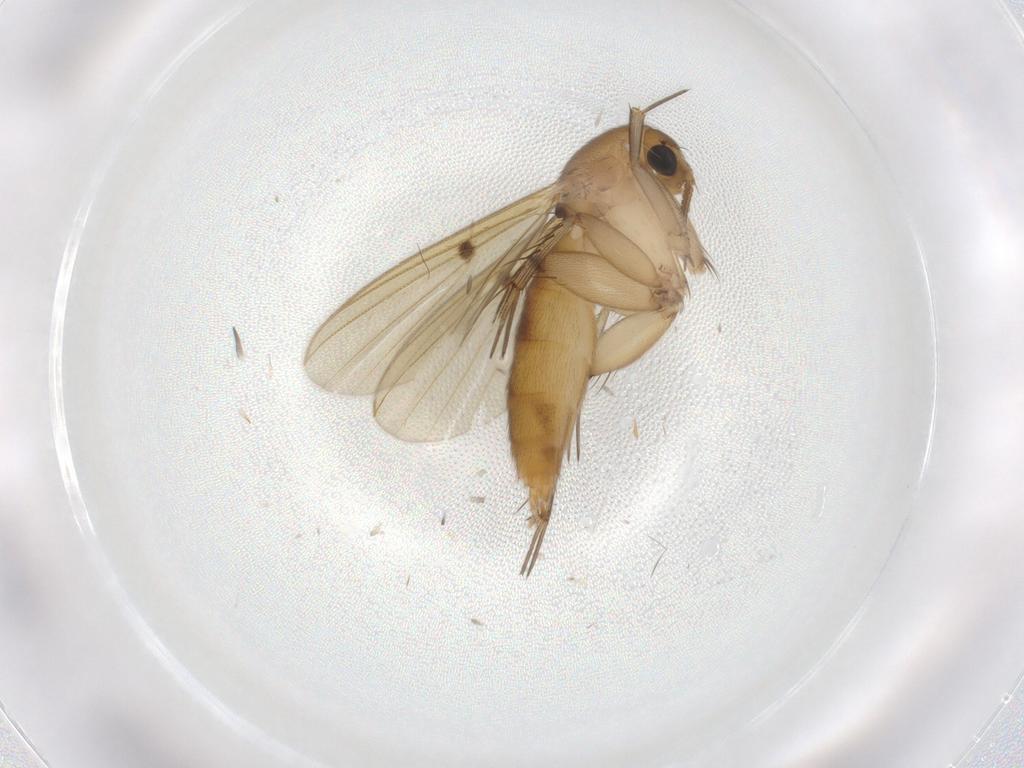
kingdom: Animalia
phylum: Arthropoda
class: Insecta
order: Diptera
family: Mycetophilidae
